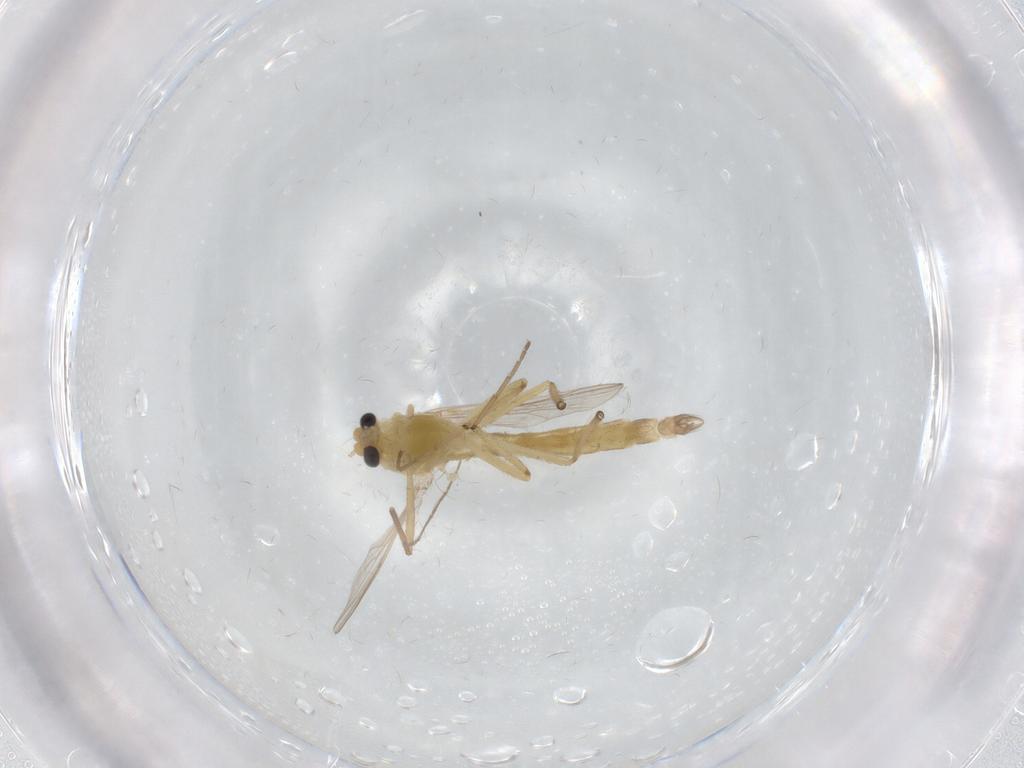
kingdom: Animalia
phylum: Arthropoda
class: Insecta
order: Diptera
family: Chironomidae
